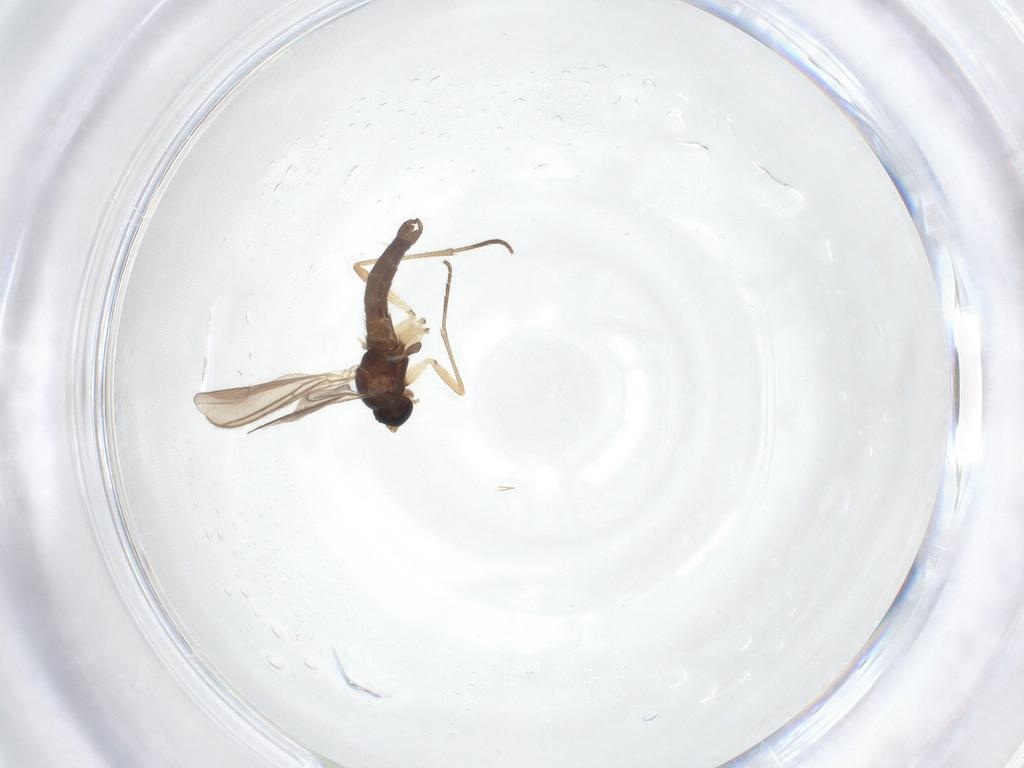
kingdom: Animalia
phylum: Arthropoda
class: Insecta
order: Diptera
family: Sciaridae
